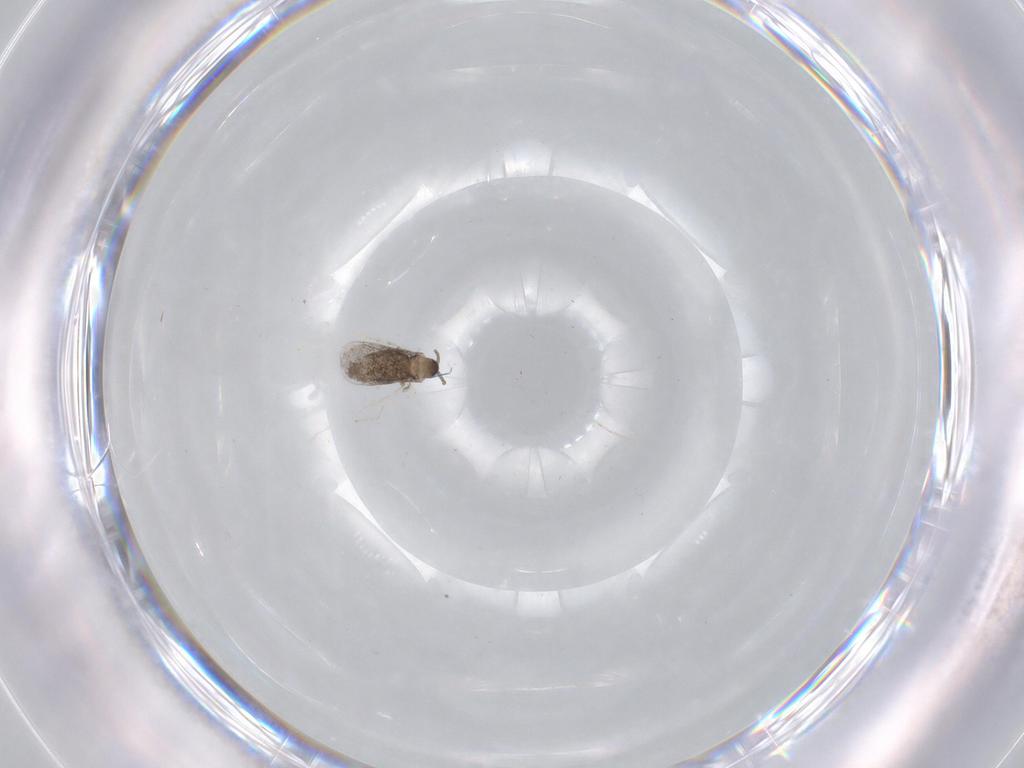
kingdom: Animalia
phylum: Arthropoda
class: Insecta
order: Diptera
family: Cecidomyiidae
